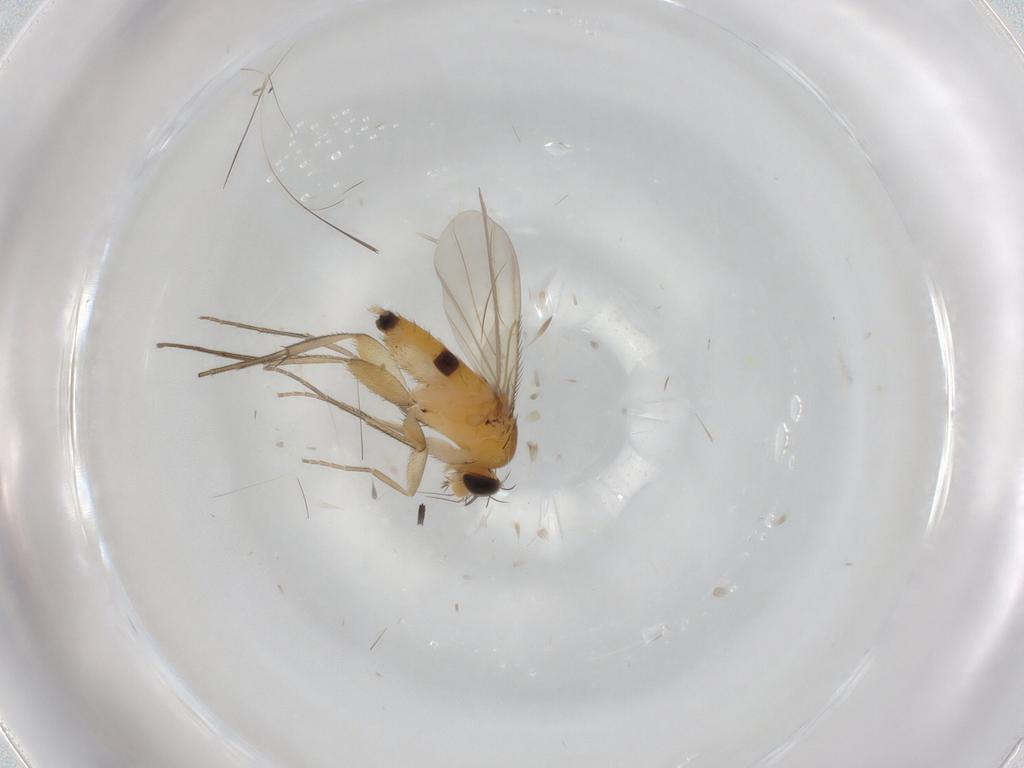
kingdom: Animalia
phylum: Arthropoda
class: Insecta
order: Diptera
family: Phoridae
